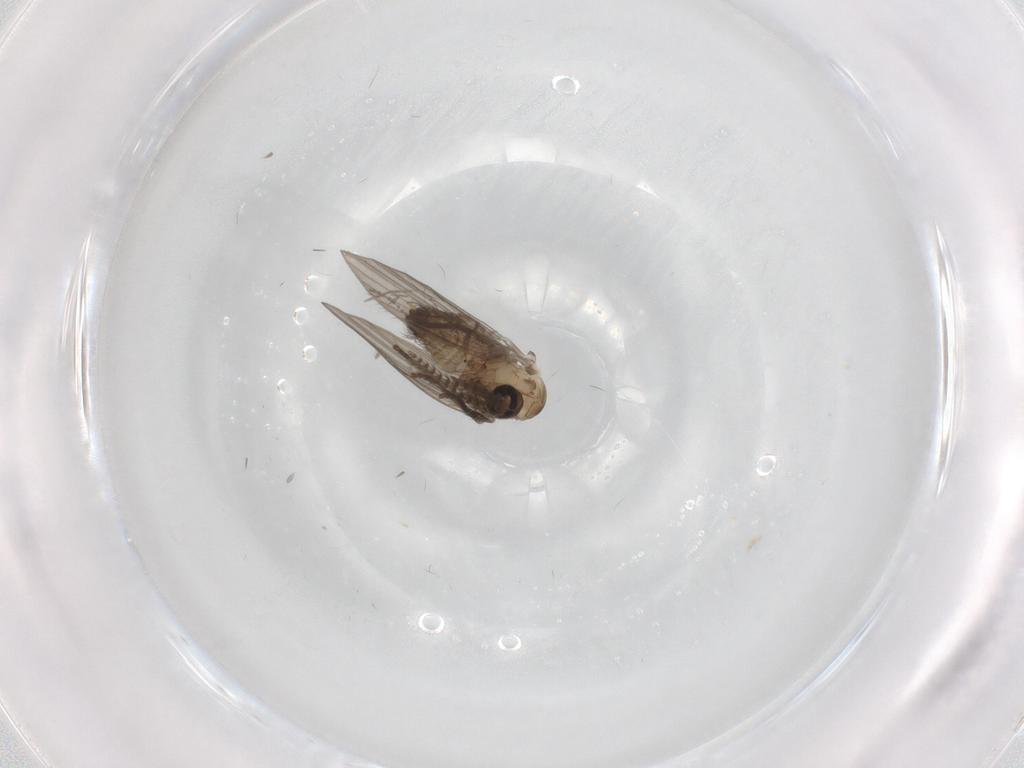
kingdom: Animalia
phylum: Arthropoda
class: Insecta
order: Diptera
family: Psychodidae
